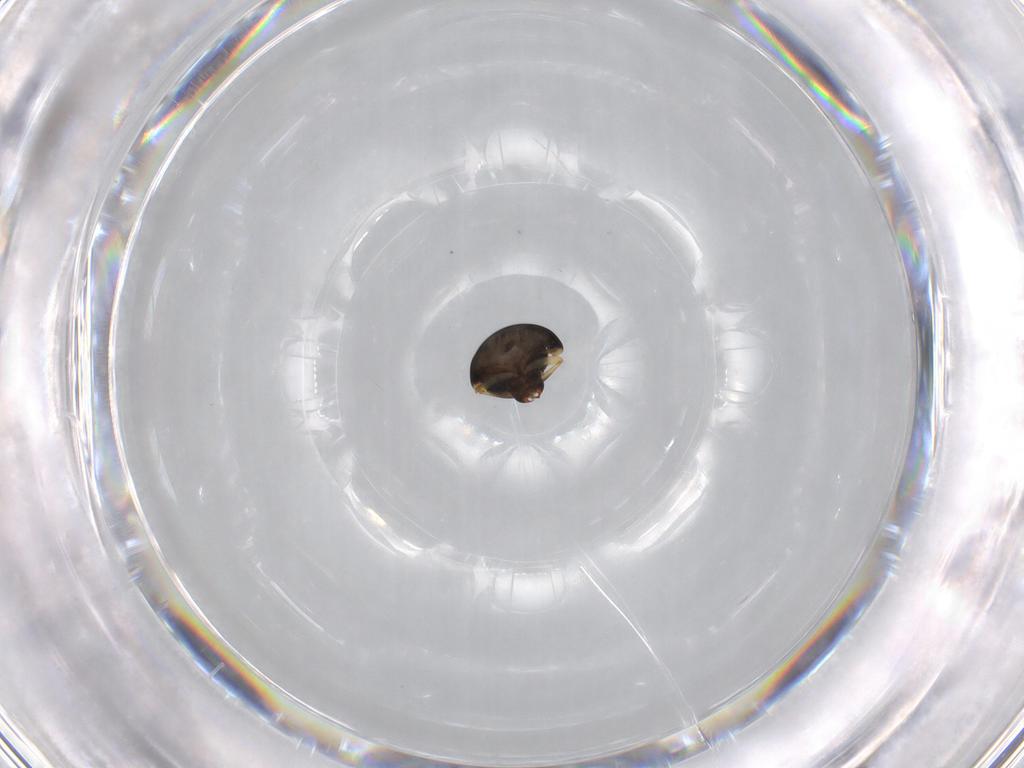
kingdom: Animalia
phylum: Arthropoda
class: Insecta
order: Coleoptera
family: Cybocephalidae
